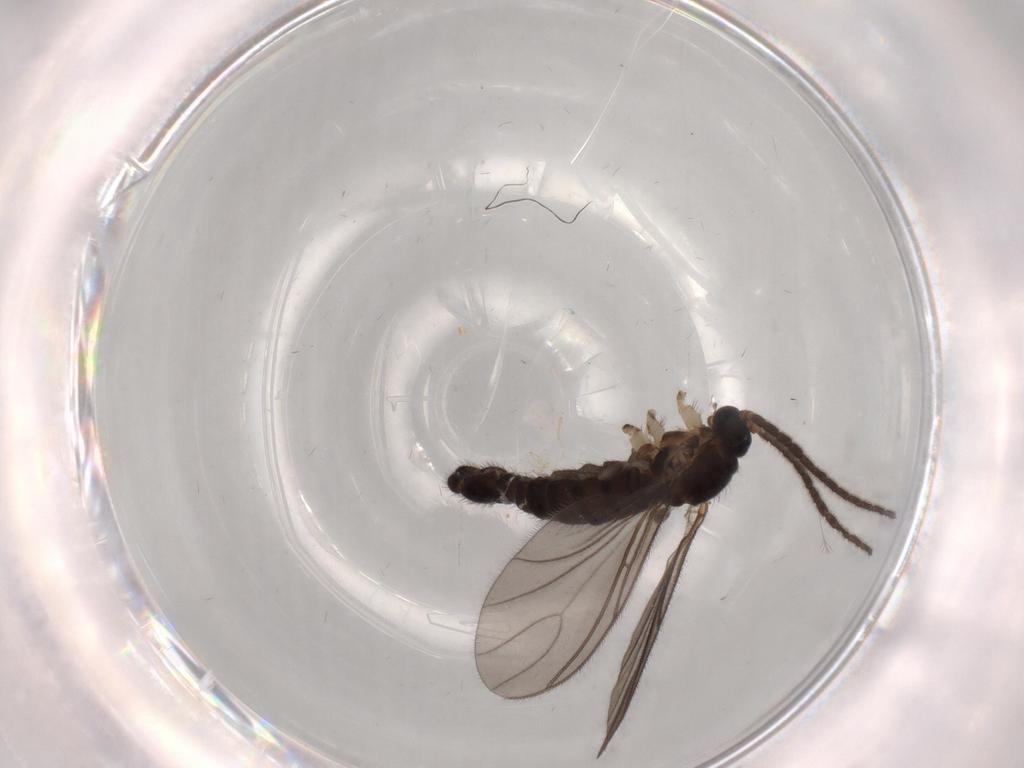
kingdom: Animalia
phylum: Arthropoda
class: Insecta
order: Diptera
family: Sciaridae
